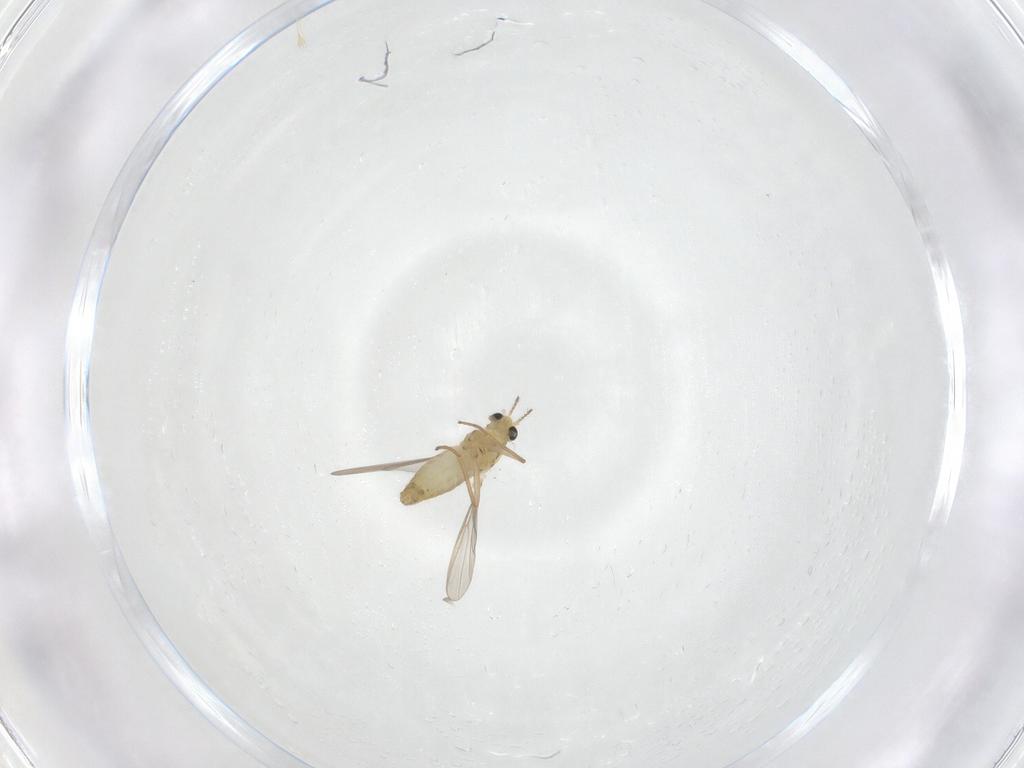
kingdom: Animalia
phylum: Arthropoda
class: Insecta
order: Diptera
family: Chironomidae
